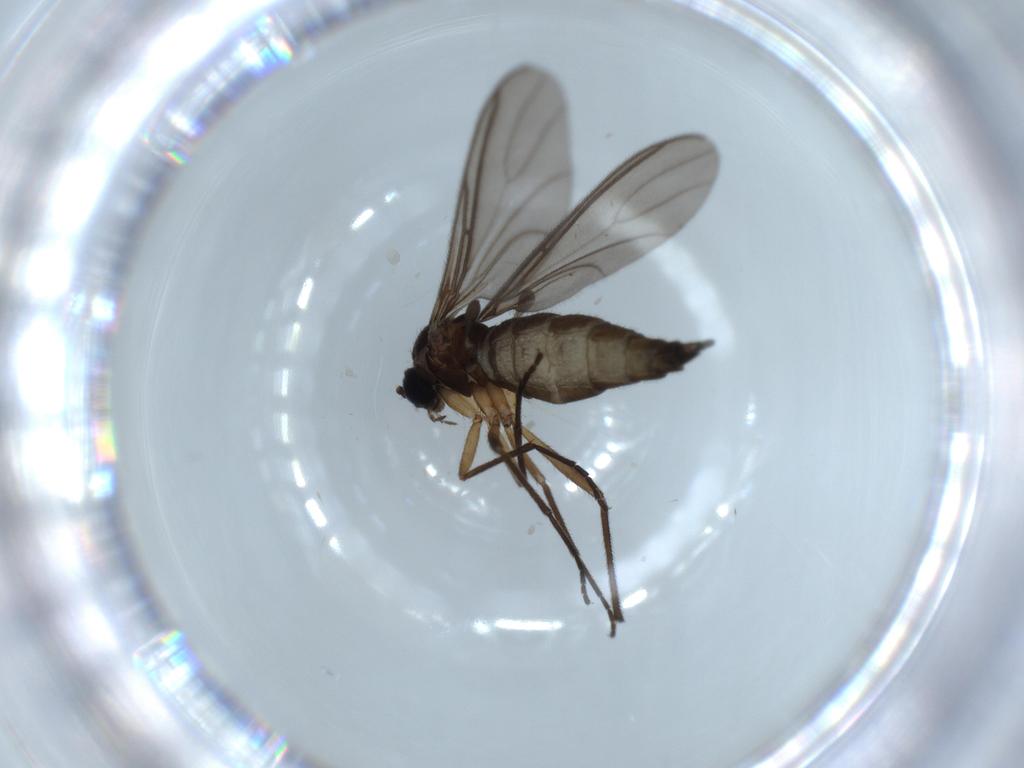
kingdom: Animalia
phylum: Arthropoda
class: Insecta
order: Diptera
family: Sciaridae
